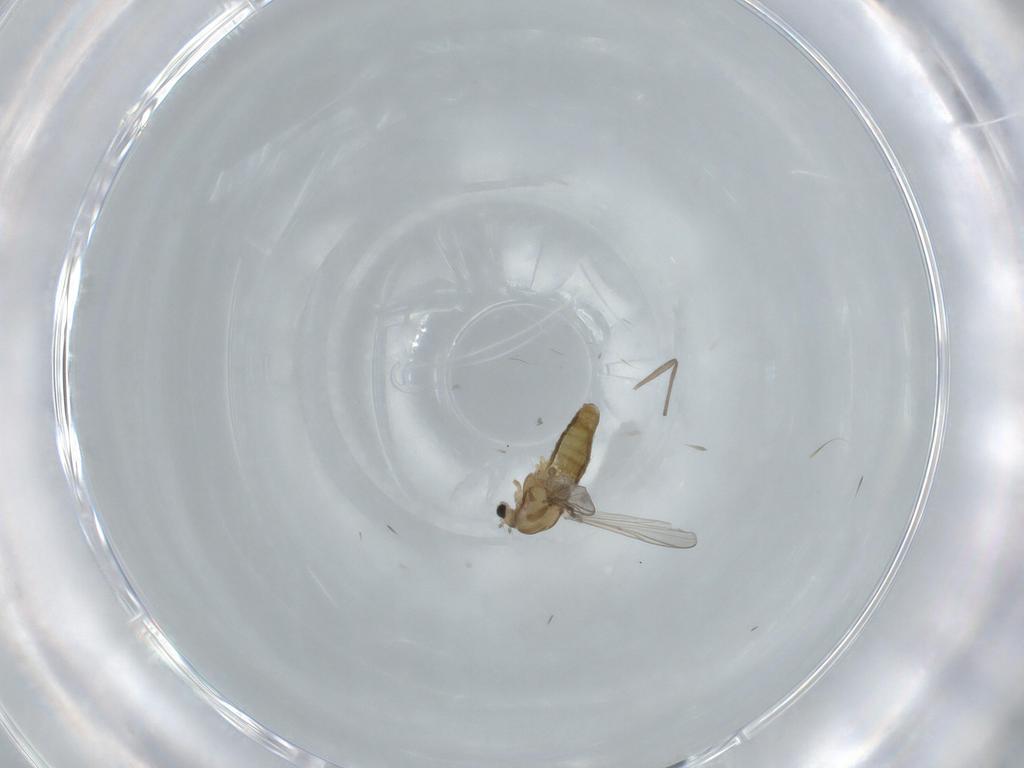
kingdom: Animalia
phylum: Arthropoda
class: Insecta
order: Diptera
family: Chironomidae
